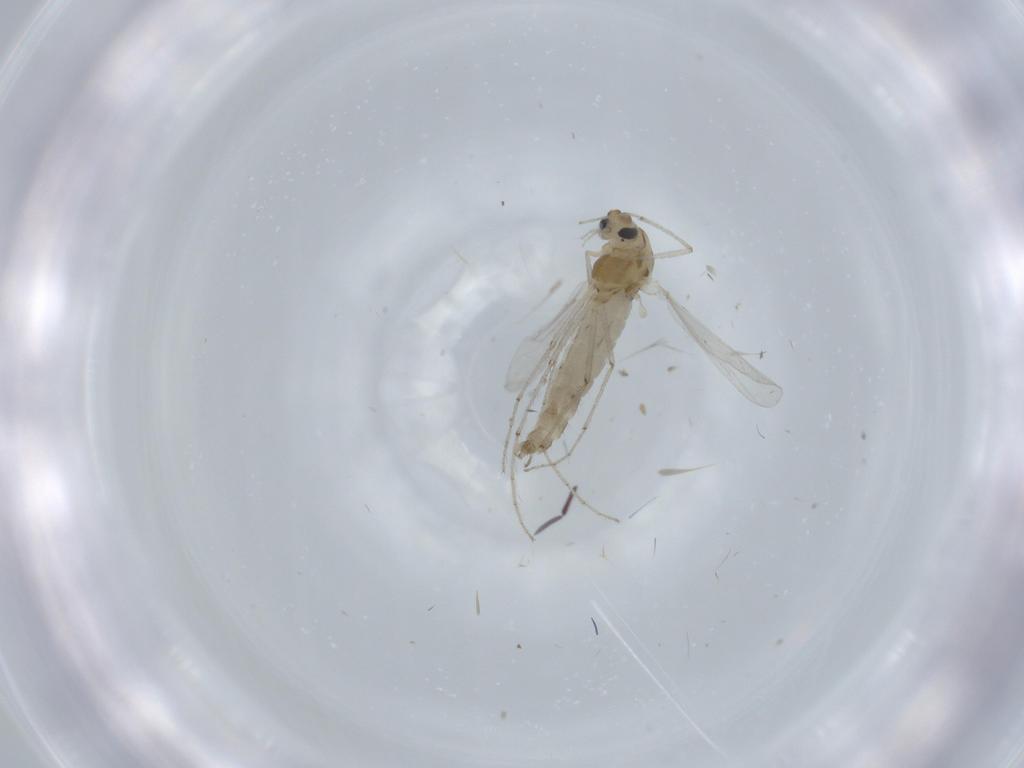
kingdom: Animalia
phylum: Arthropoda
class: Insecta
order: Diptera
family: Chironomidae
